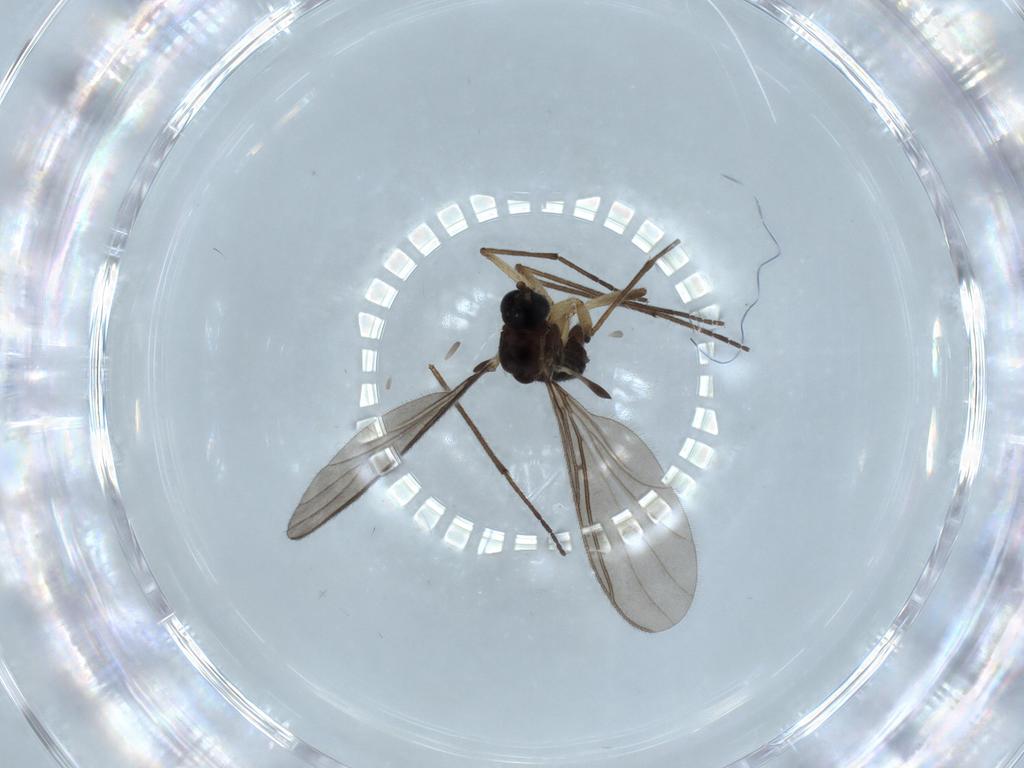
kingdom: Animalia
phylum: Arthropoda
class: Insecta
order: Diptera
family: Sciaridae
